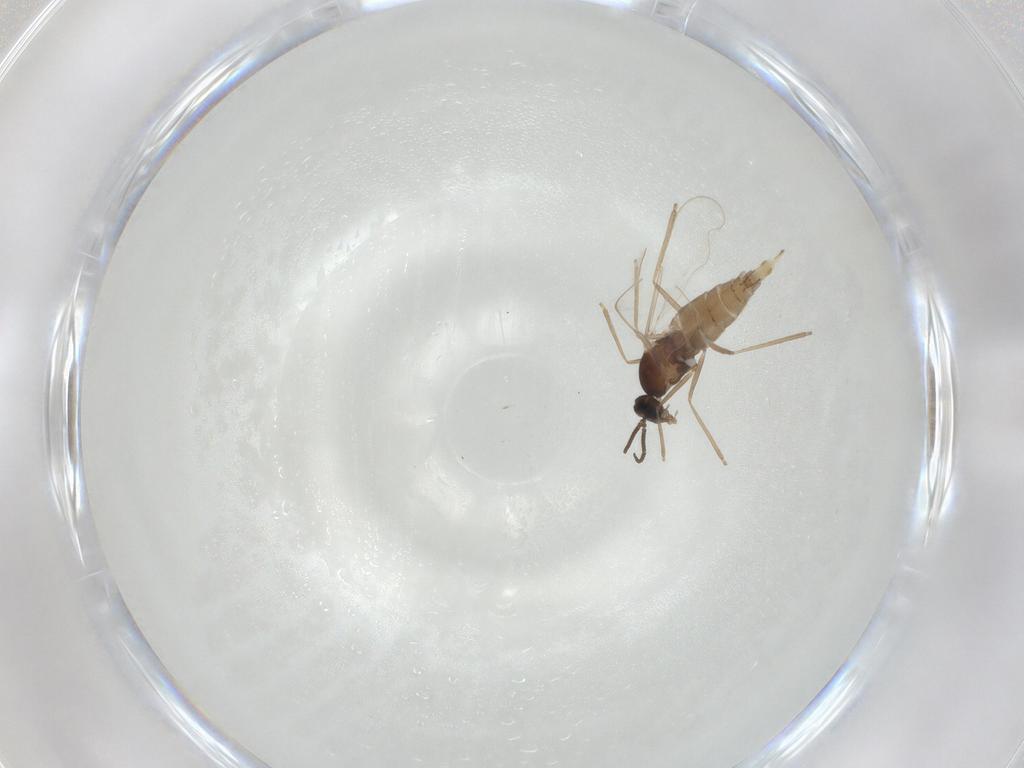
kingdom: Animalia
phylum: Arthropoda
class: Insecta
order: Diptera
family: Cecidomyiidae
